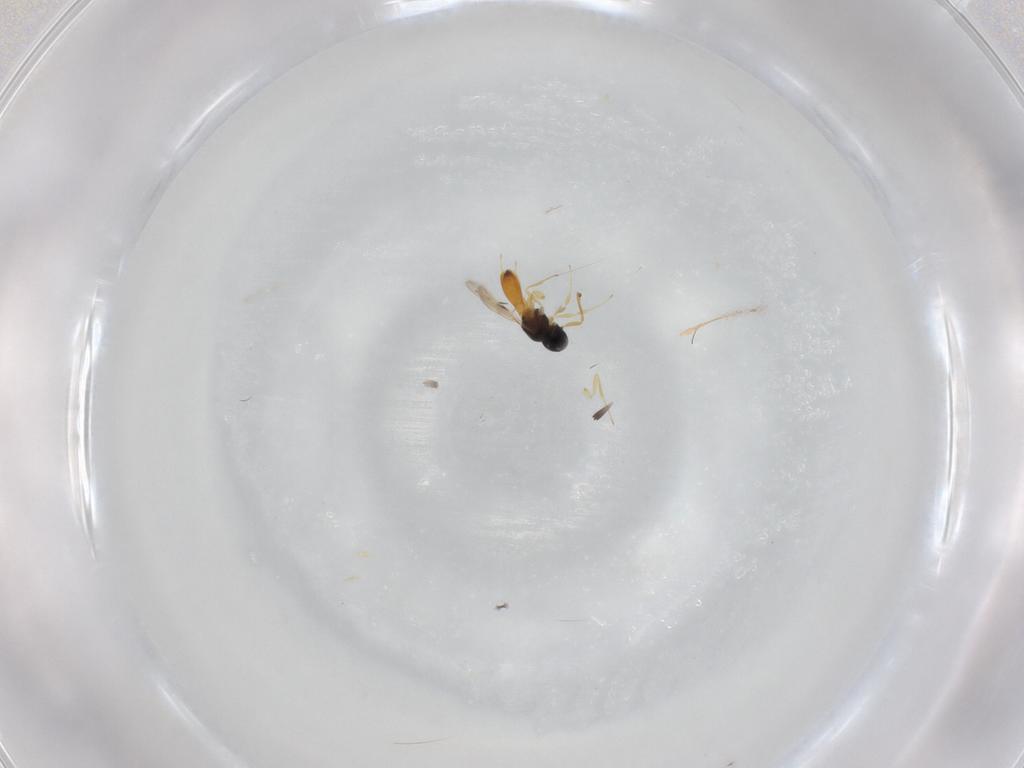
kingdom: Animalia
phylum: Arthropoda
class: Insecta
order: Hymenoptera
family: Scelionidae
